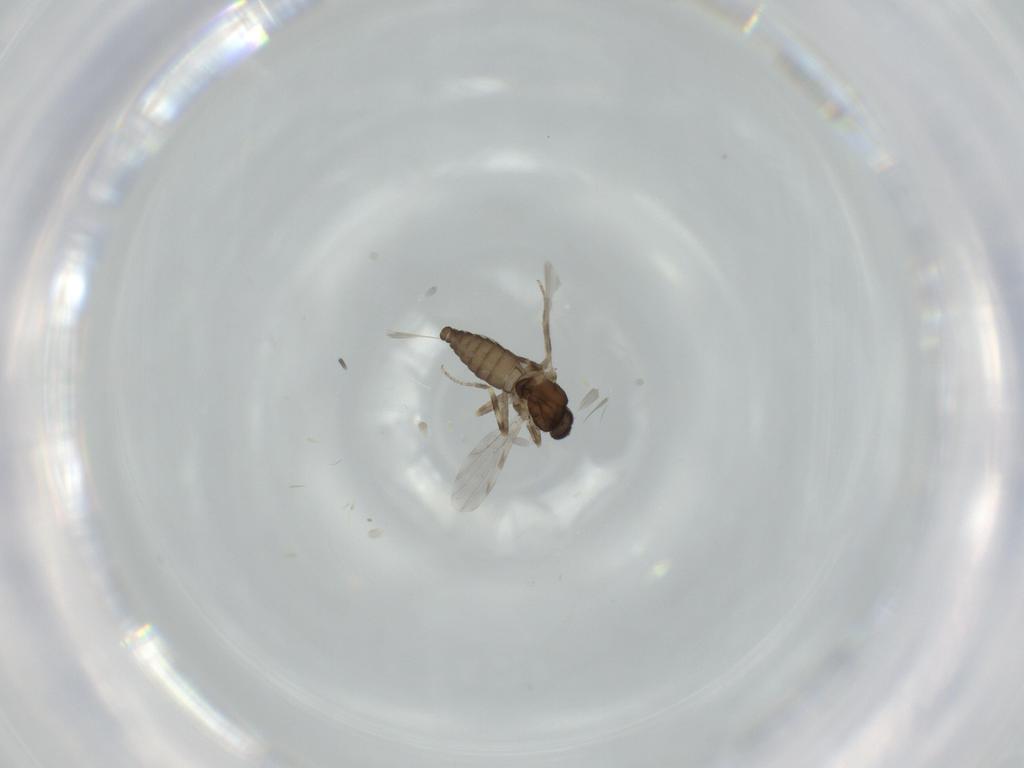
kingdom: Animalia
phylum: Arthropoda
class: Insecta
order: Diptera
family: Ceratopogonidae
